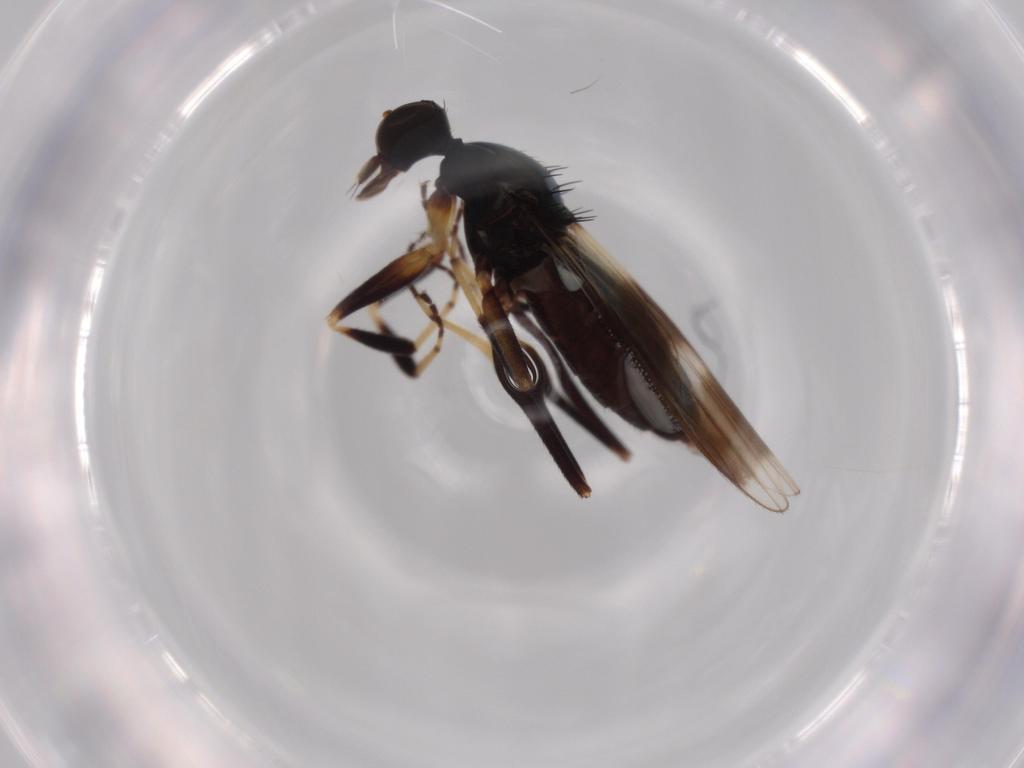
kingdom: Animalia
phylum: Arthropoda
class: Insecta
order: Diptera
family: Hybotidae
